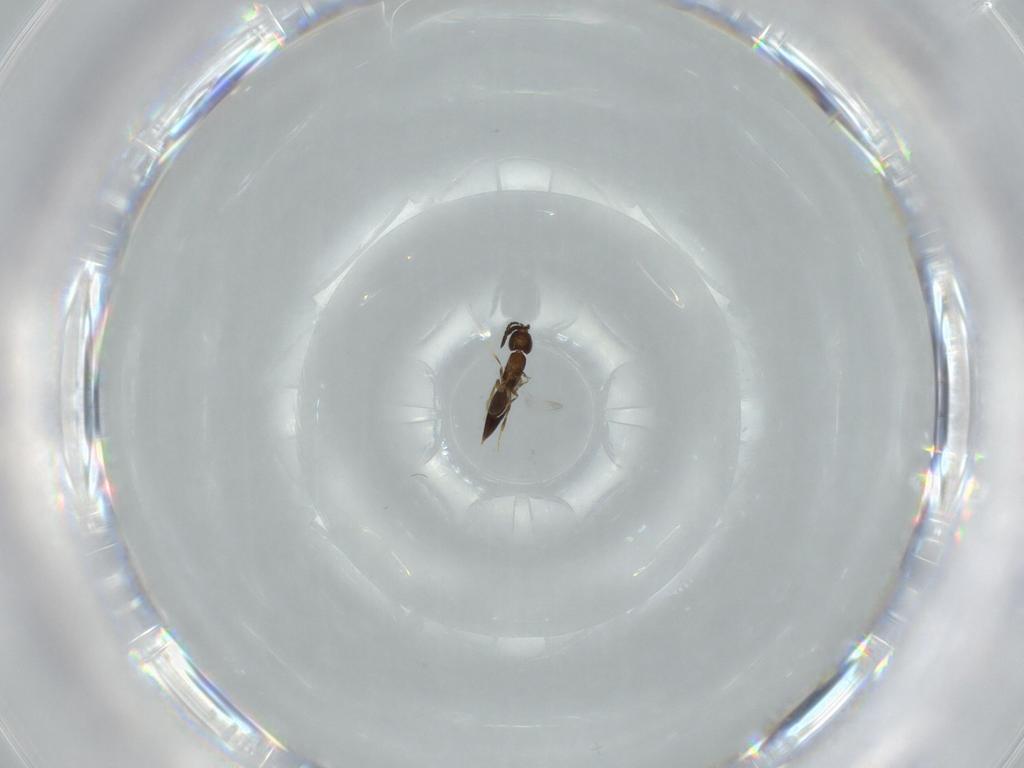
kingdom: Animalia
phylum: Arthropoda
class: Insecta
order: Hymenoptera
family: Ceraphronidae
